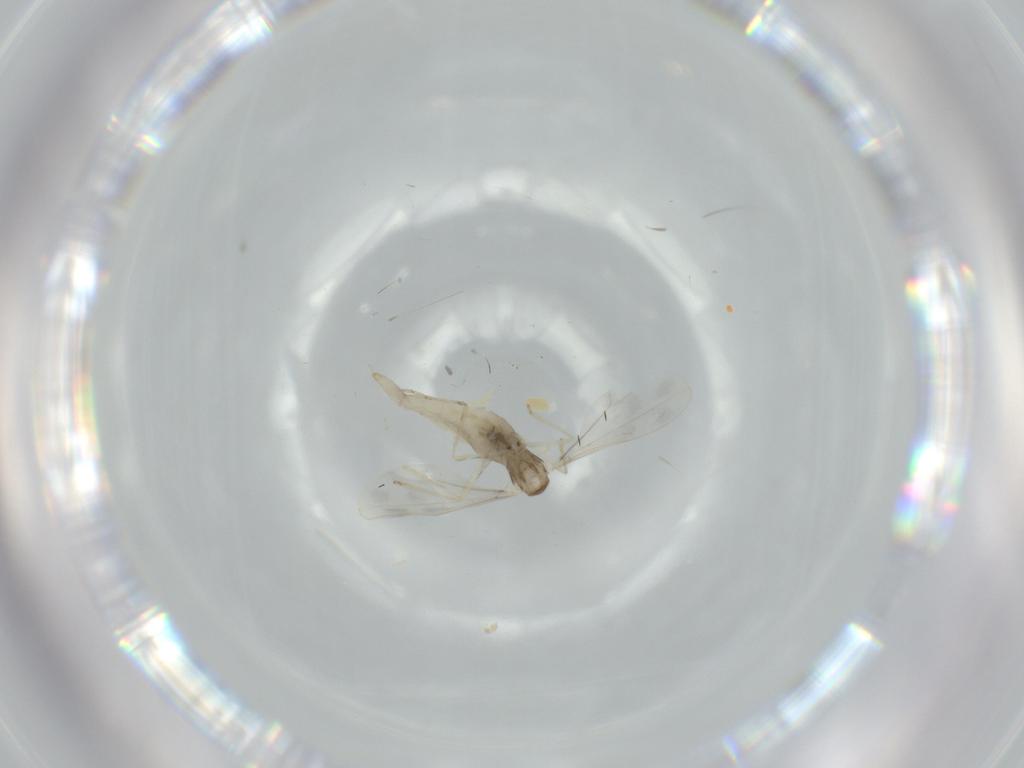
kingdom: Animalia
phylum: Arthropoda
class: Insecta
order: Diptera
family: Dolichopodidae
